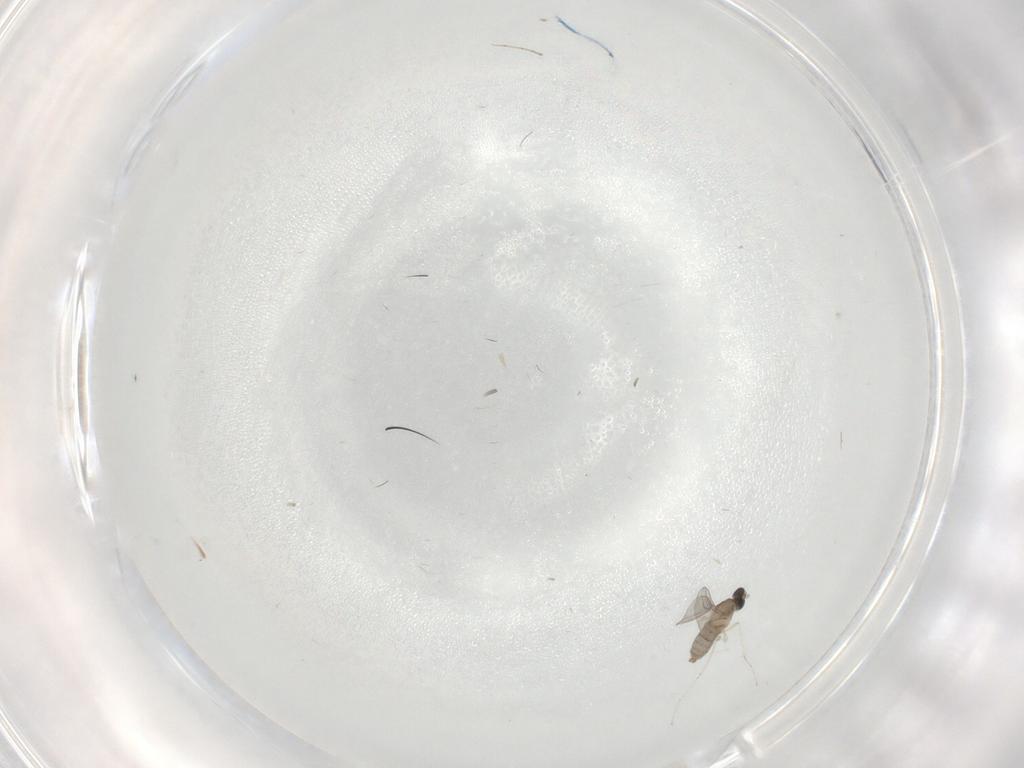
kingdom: Animalia
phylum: Arthropoda
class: Insecta
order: Diptera
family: Cecidomyiidae
